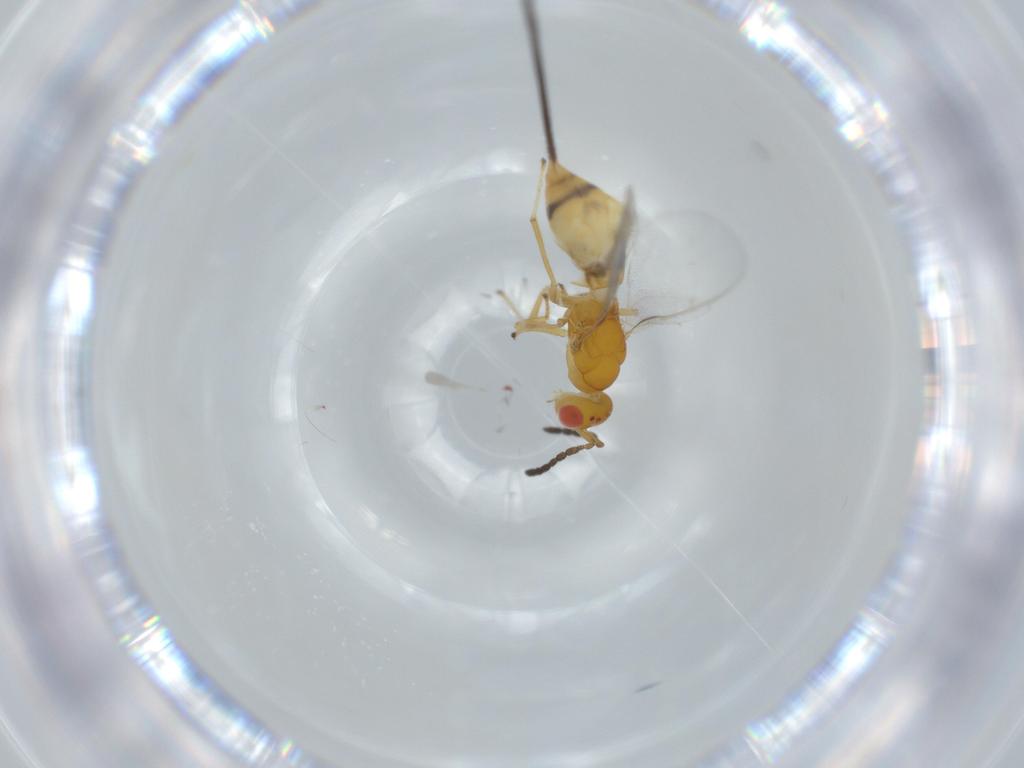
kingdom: Animalia
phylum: Arthropoda
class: Insecta
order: Hymenoptera
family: Pteromalidae
